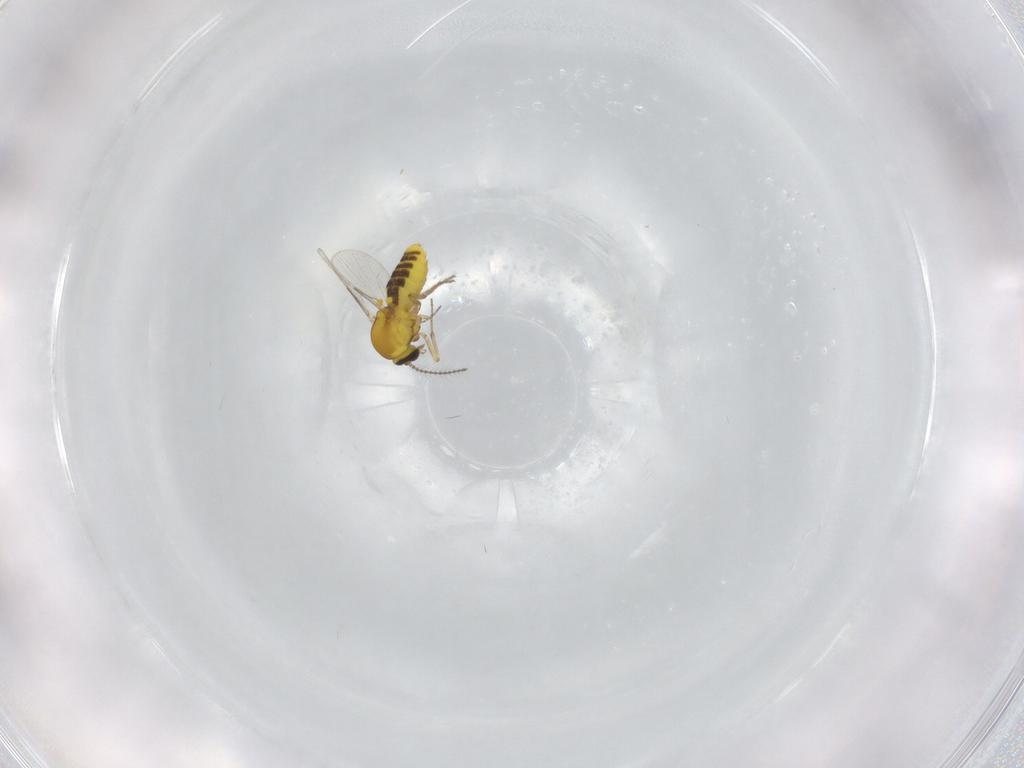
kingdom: Animalia
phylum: Arthropoda
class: Insecta
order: Diptera
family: Ceratopogonidae
